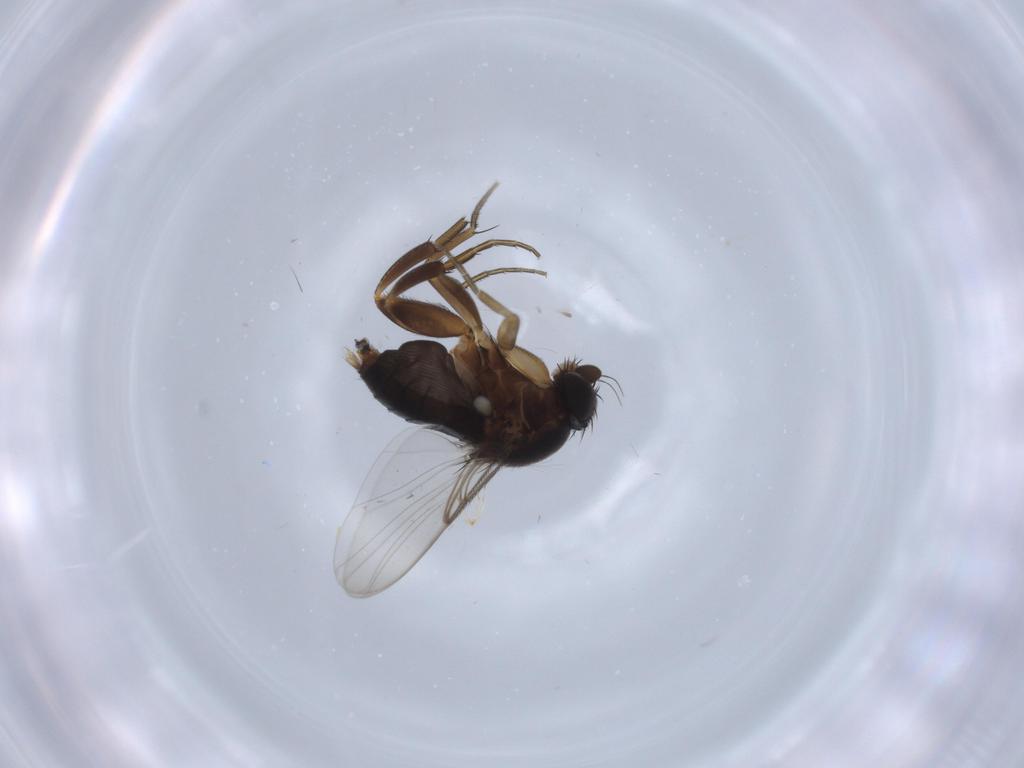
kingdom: Animalia
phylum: Arthropoda
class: Insecta
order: Diptera
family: Phoridae
